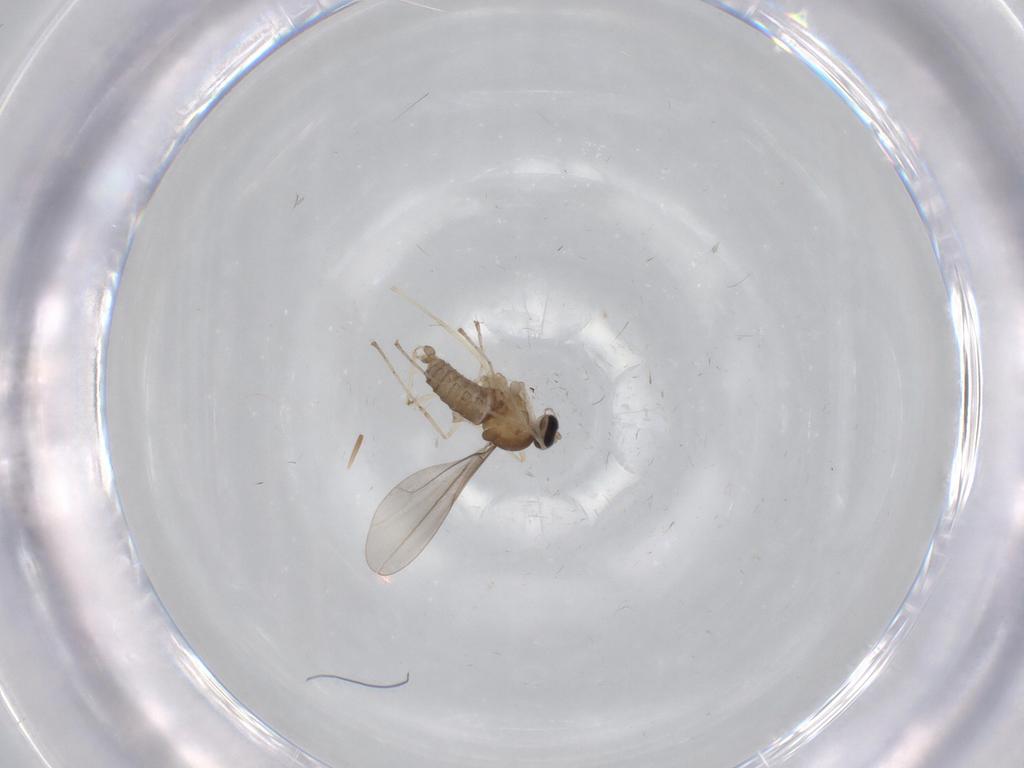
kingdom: Animalia
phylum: Arthropoda
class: Insecta
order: Diptera
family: Cecidomyiidae
